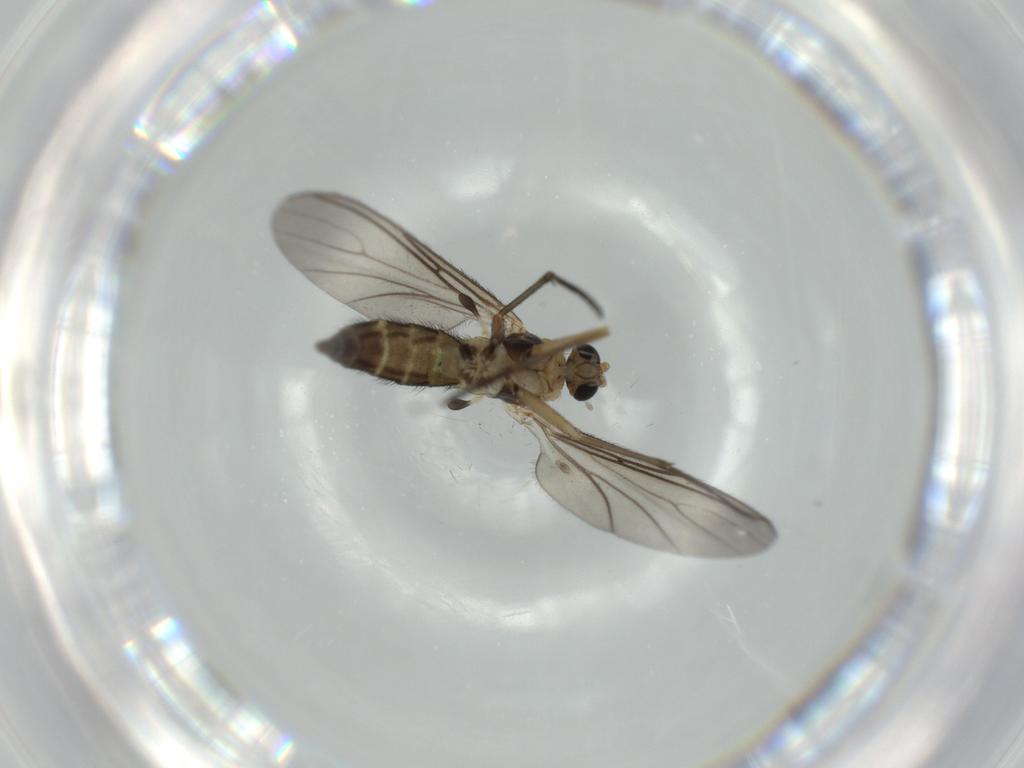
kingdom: Animalia
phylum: Arthropoda
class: Insecta
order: Diptera
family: Sciaridae
